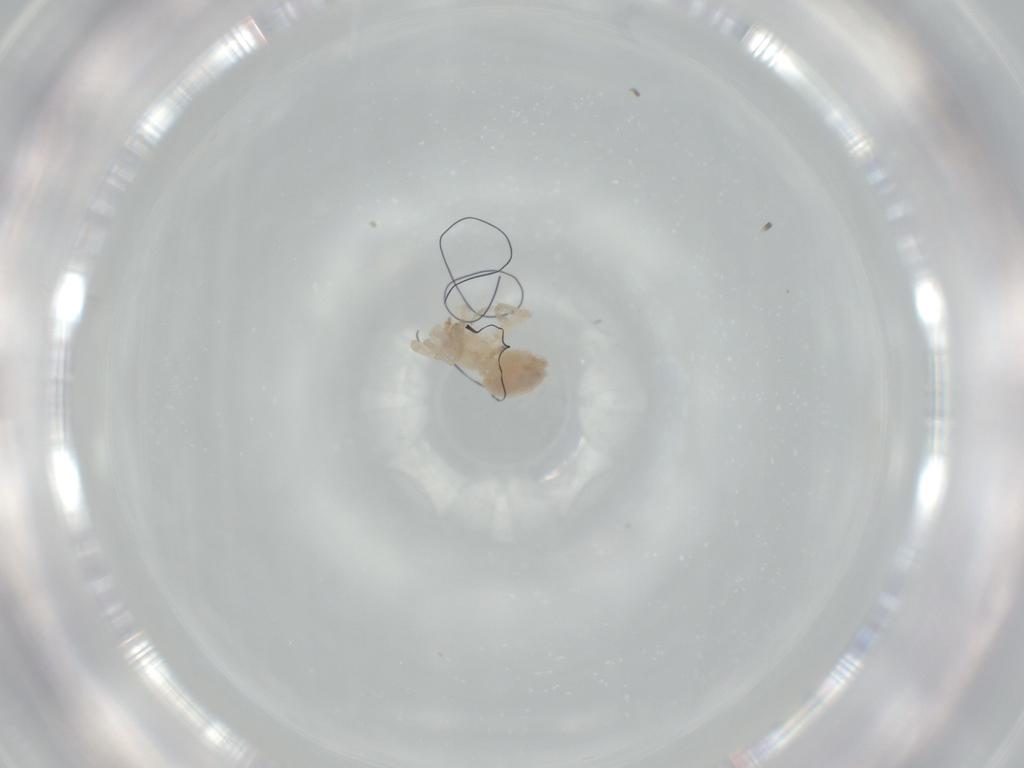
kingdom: Animalia
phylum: Arthropoda
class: Arachnida
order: Araneae
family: Oonopidae
